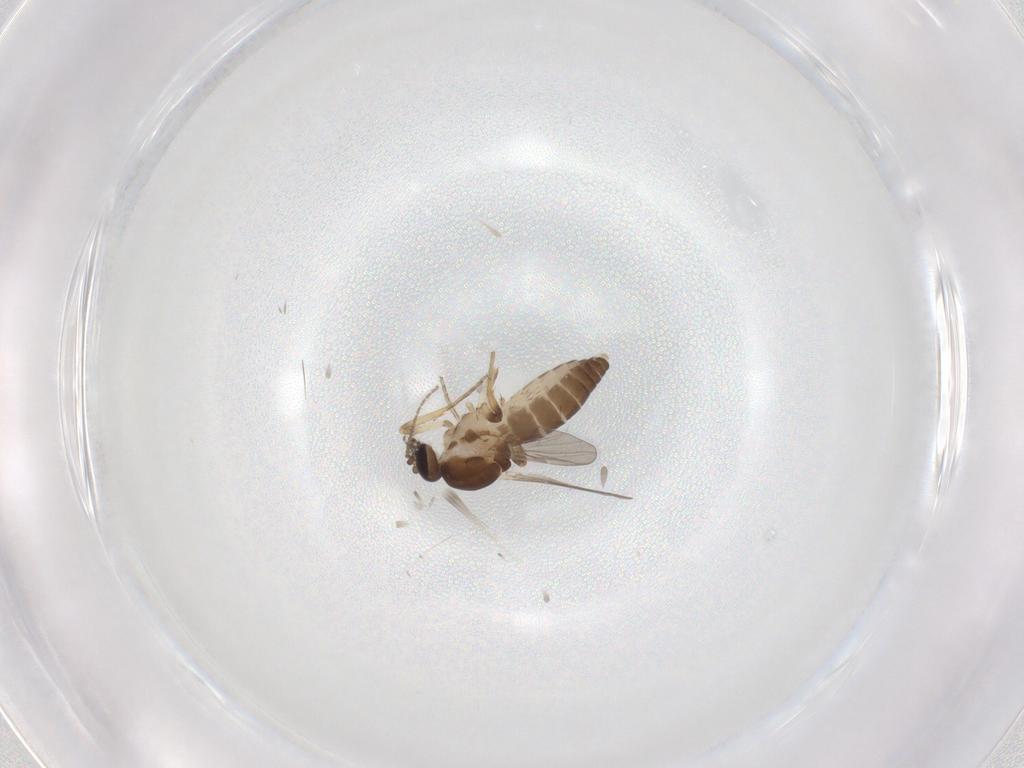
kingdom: Animalia
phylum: Arthropoda
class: Insecta
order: Diptera
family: Ceratopogonidae
